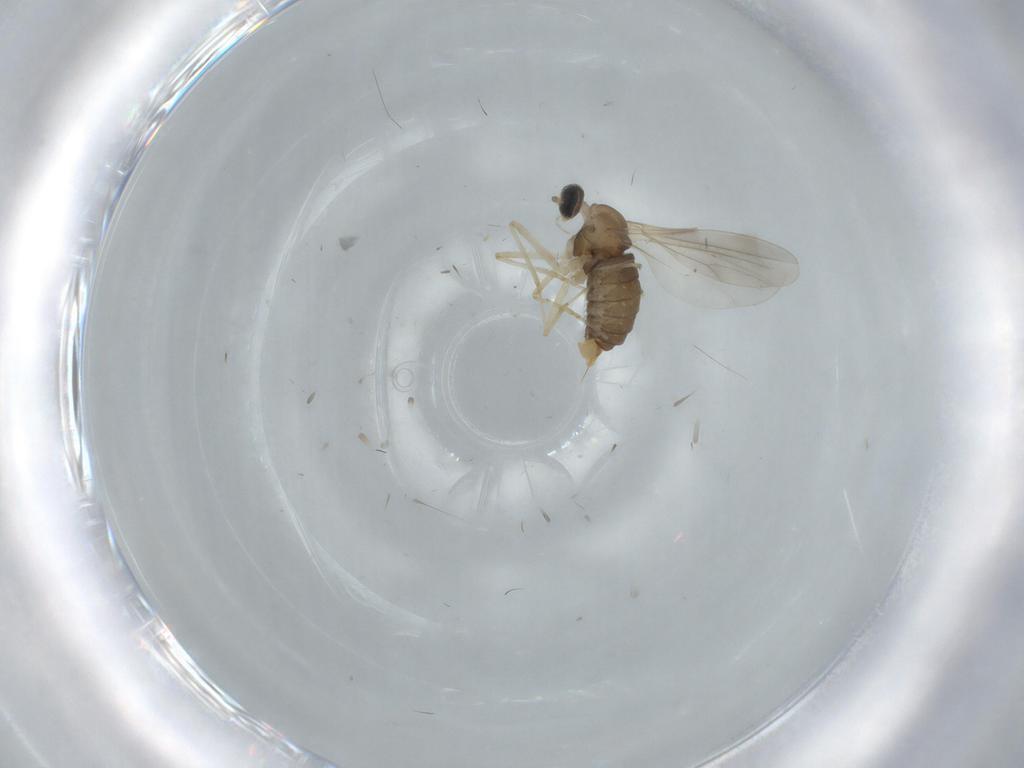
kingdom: Animalia
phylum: Arthropoda
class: Insecta
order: Diptera
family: Cecidomyiidae
